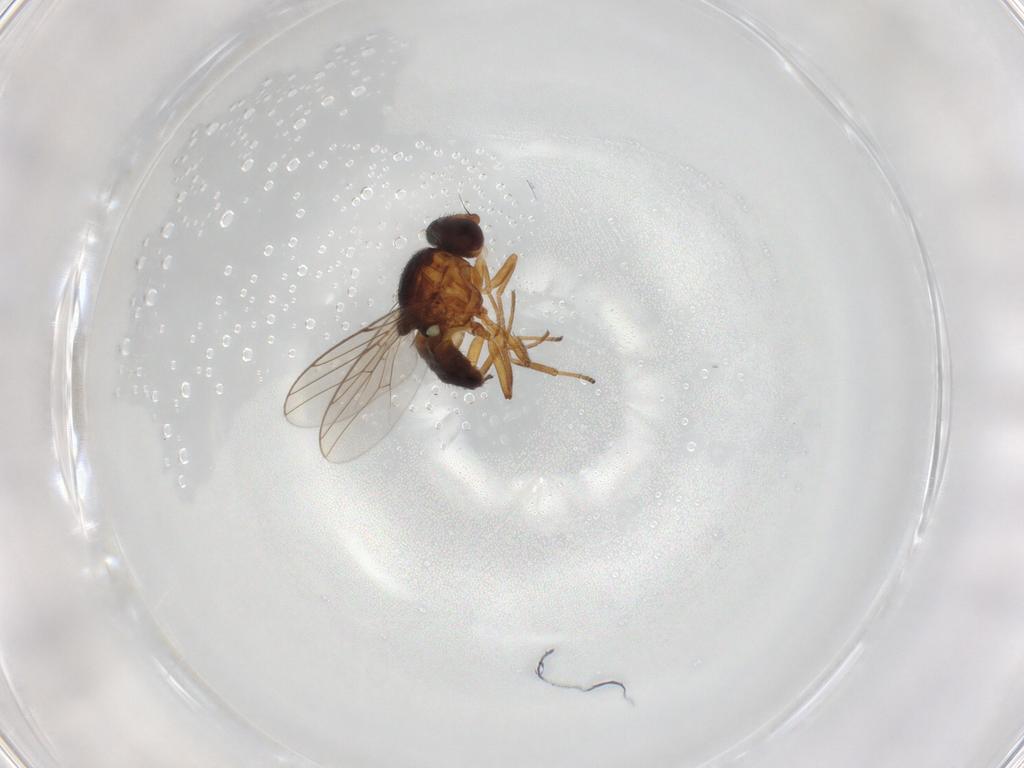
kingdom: Animalia
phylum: Arthropoda
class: Insecta
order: Diptera
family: Chloropidae
